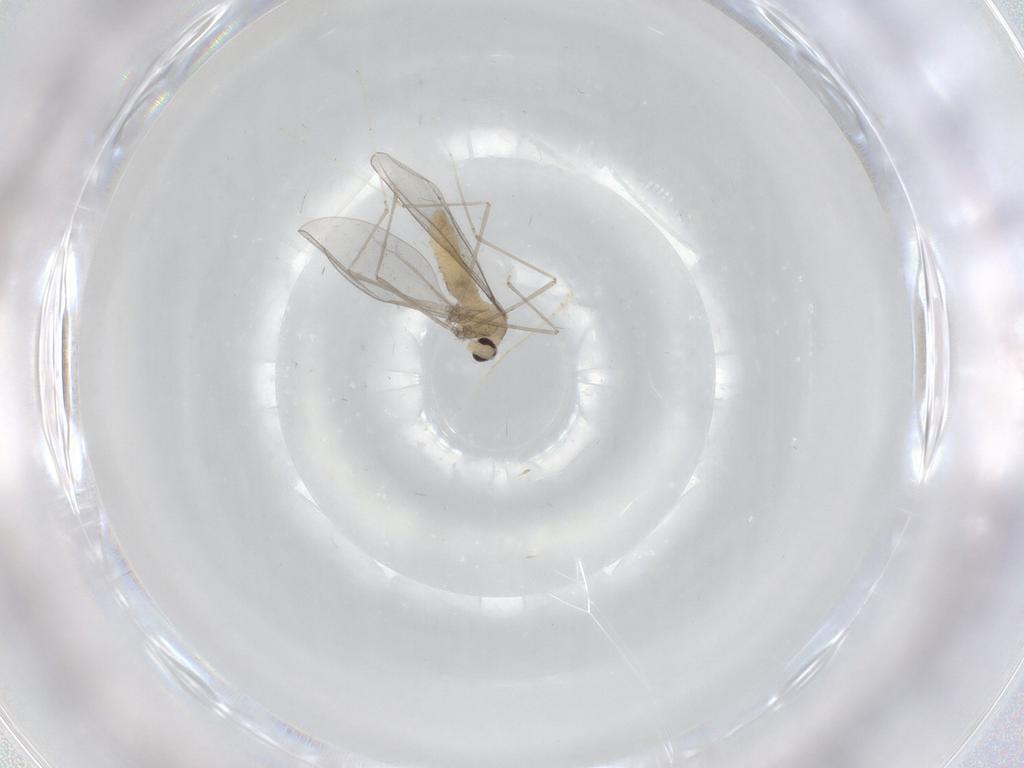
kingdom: Animalia
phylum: Arthropoda
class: Insecta
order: Diptera
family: Cecidomyiidae
